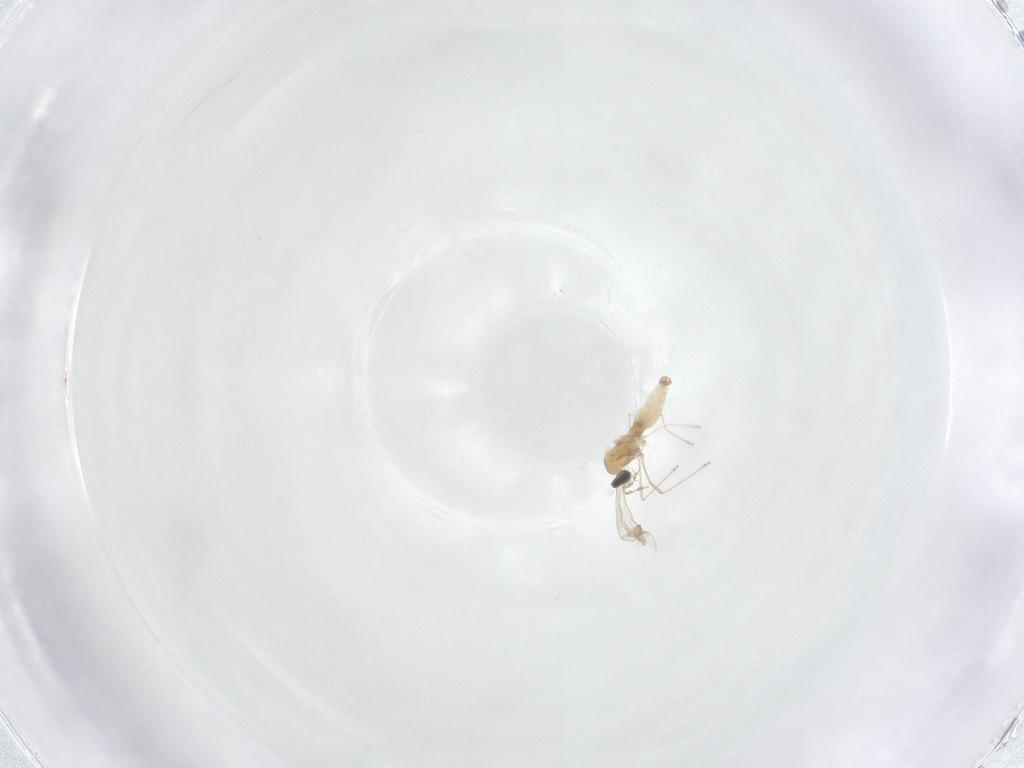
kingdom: Animalia
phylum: Arthropoda
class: Insecta
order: Diptera
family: Tabanidae
